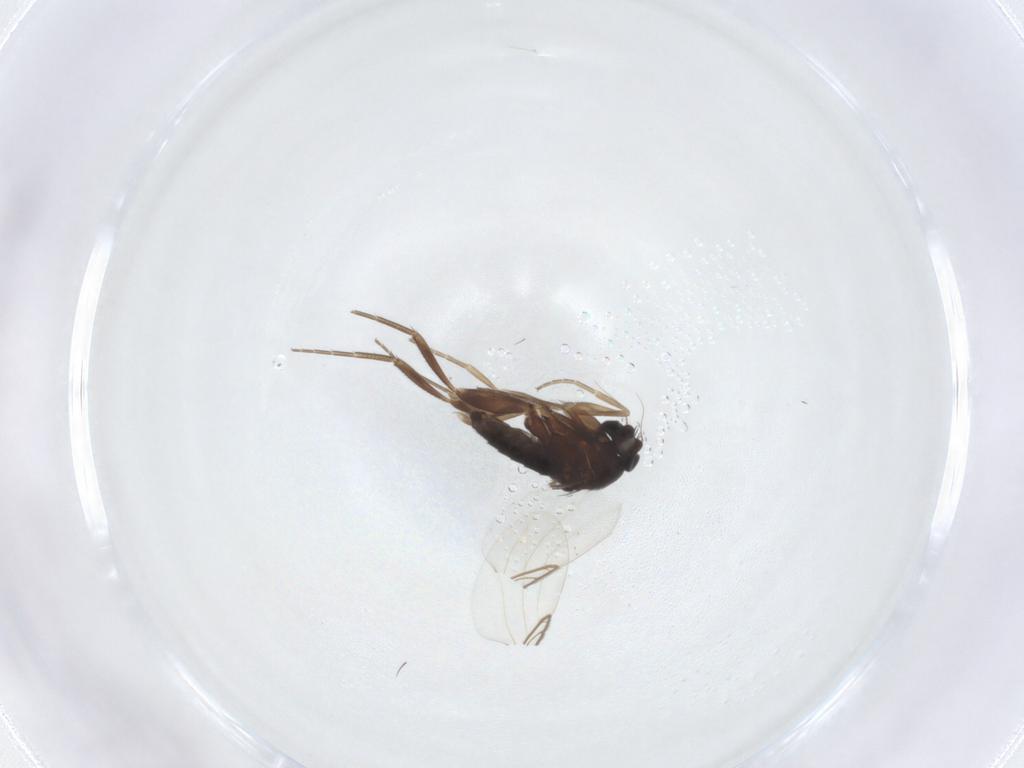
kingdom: Animalia
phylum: Arthropoda
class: Insecta
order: Diptera
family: Phoridae
